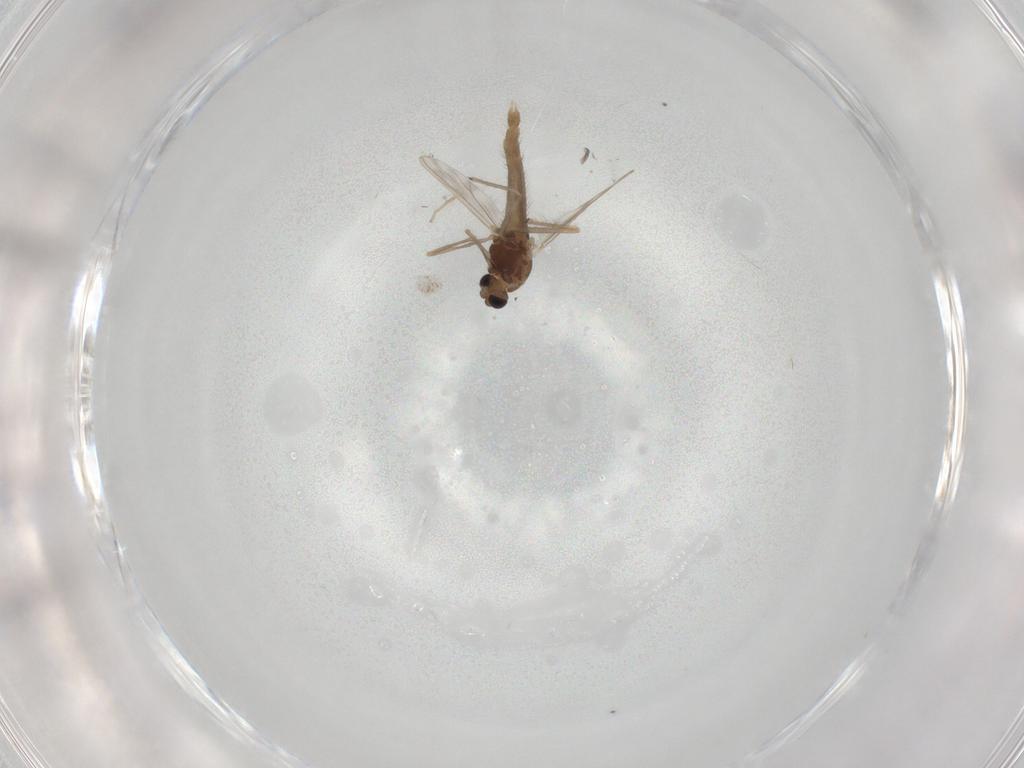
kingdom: Animalia
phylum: Arthropoda
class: Insecta
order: Diptera
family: Chironomidae
